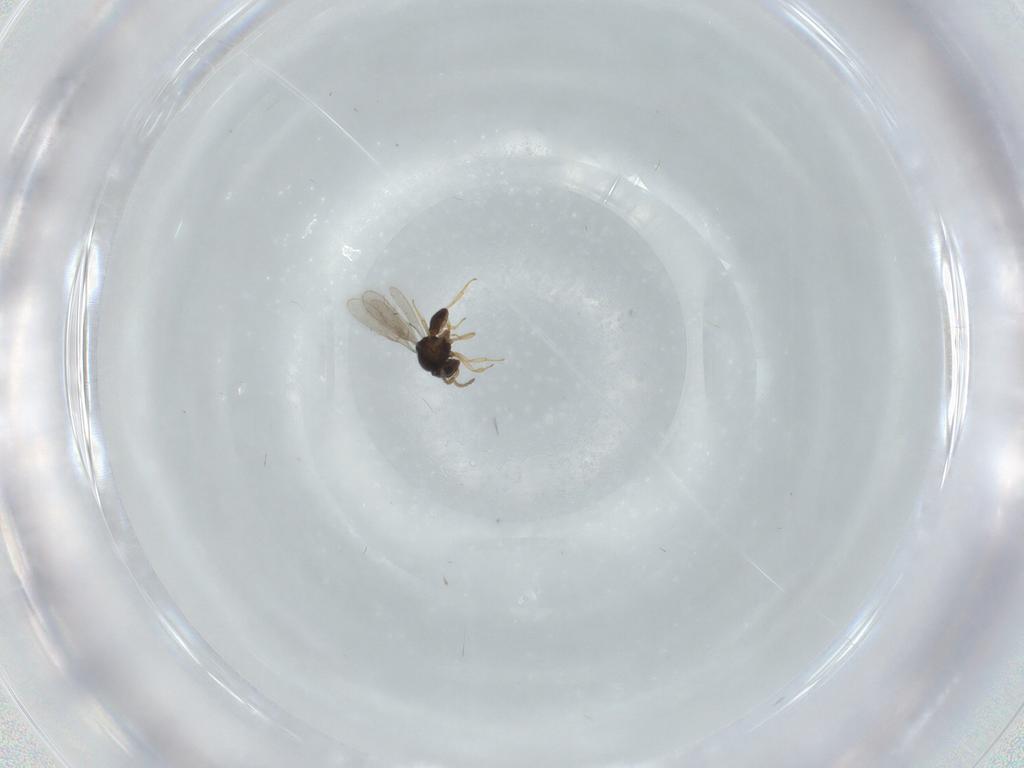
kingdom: Animalia
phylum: Arthropoda
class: Insecta
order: Hymenoptera
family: Scelionidae
